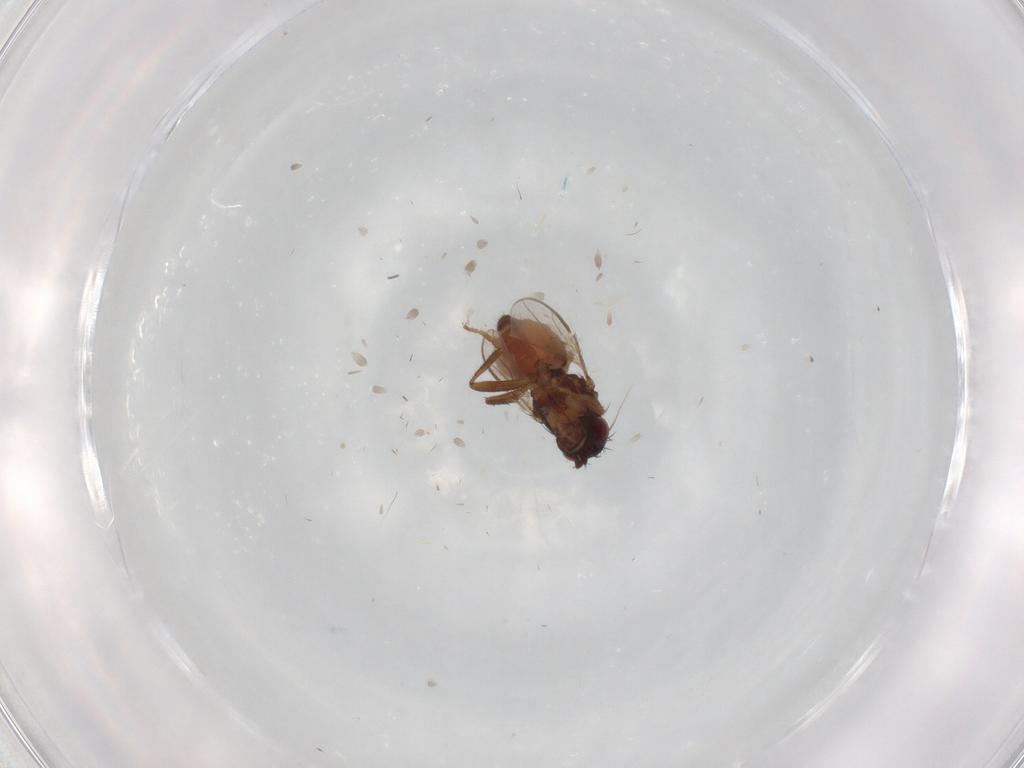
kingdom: Animalia
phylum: Arthropoda
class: Insecta
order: Diptera
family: Sphaeroceridae
